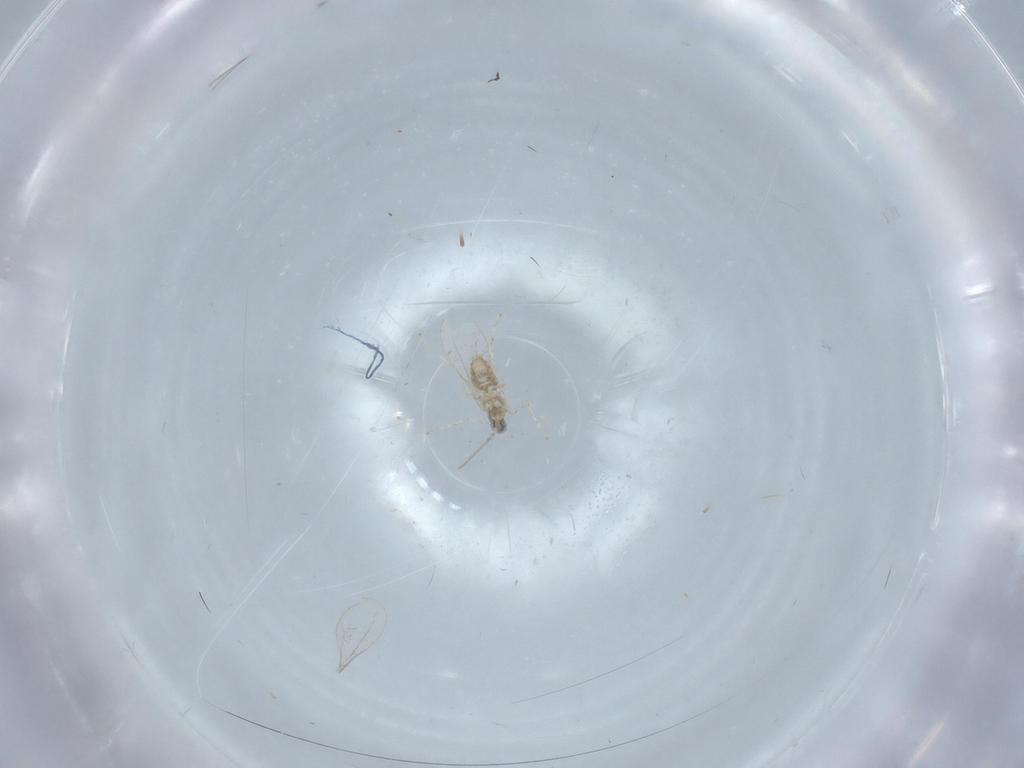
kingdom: Animalia
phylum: Arthropoda
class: Insecta
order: Diptera
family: Cecidomyiidae
